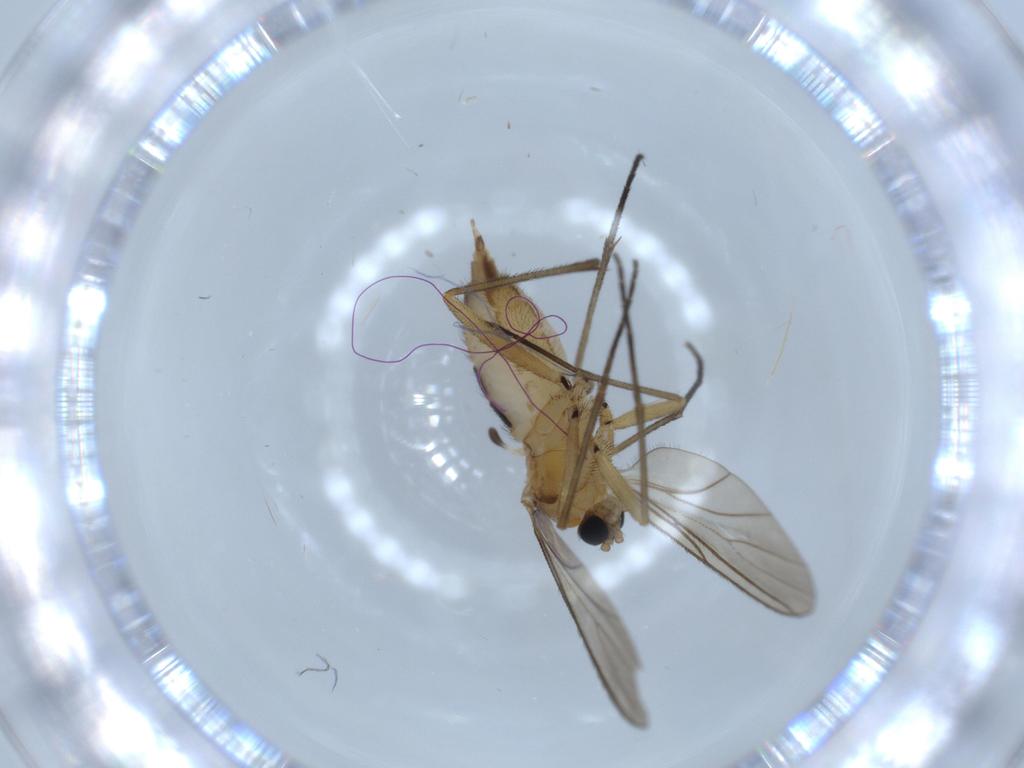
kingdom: Animalia
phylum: Arthropoda
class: Insecta
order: Diptera
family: Sciaridae
